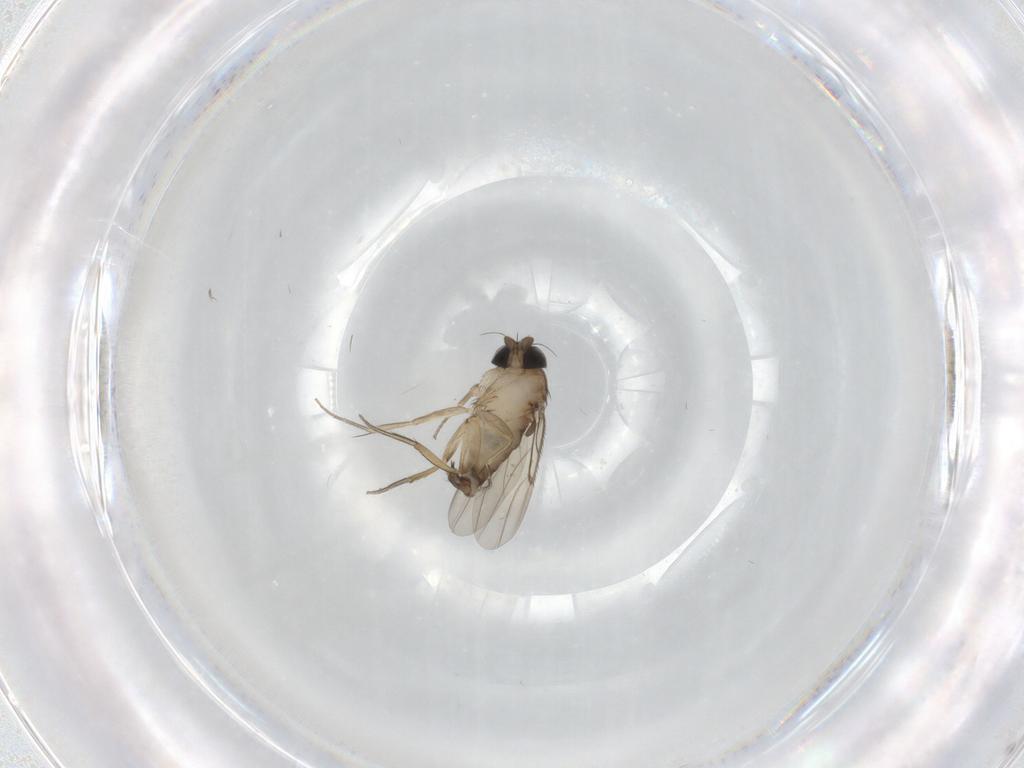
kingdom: Animalia
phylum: Arthropoda
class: Insecta
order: Diptera
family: Phoridae
